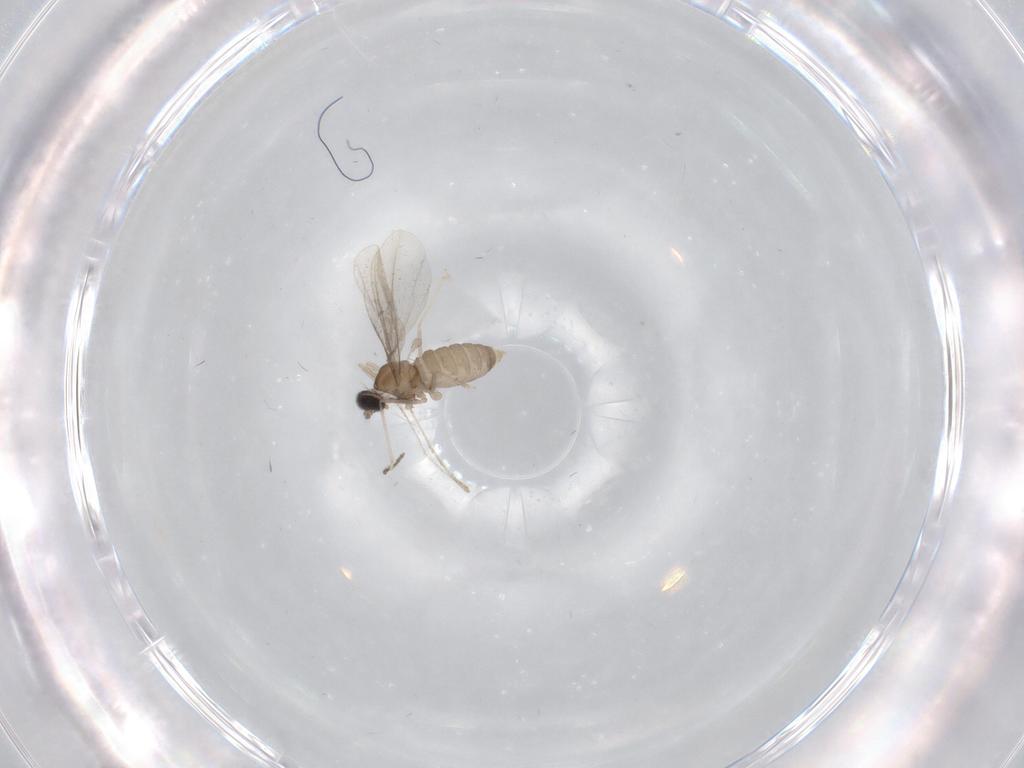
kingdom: Animalia
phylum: Arthropoda
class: Insecta
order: Diptera
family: Cecidomyiidae
